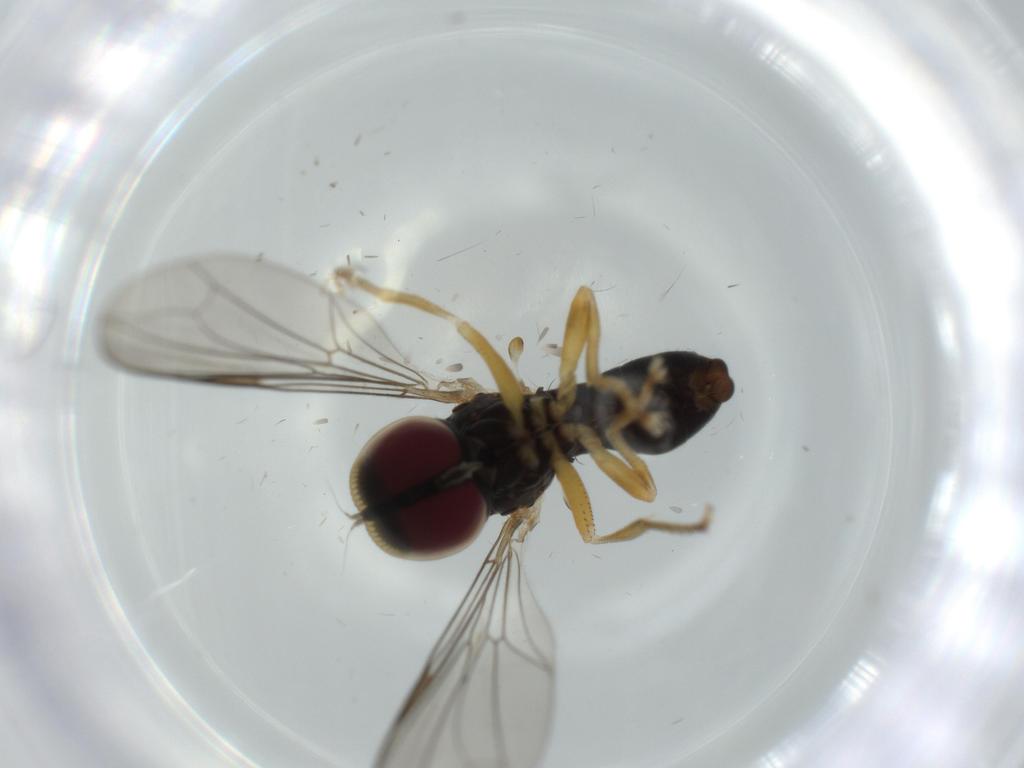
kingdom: Animalia
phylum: Arthropoda
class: Insecta
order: Diptera
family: Pipunculidae
